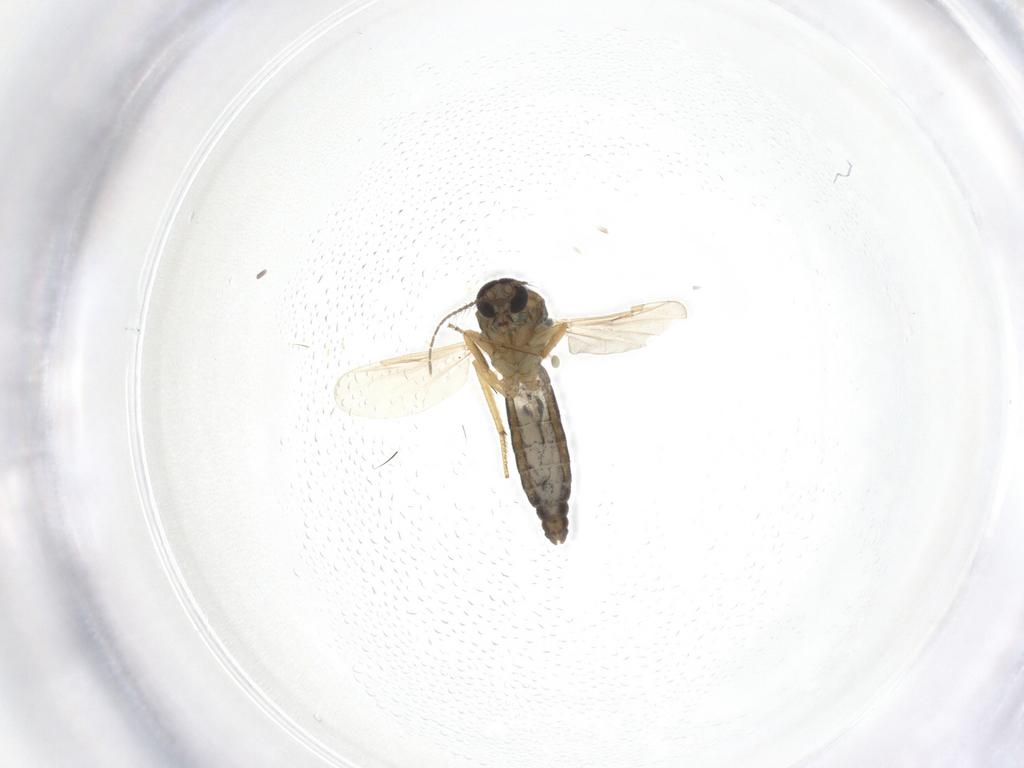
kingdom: Animalia
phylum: Arthropoda
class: Insecta
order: Diptera
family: Ceratopogonidae
